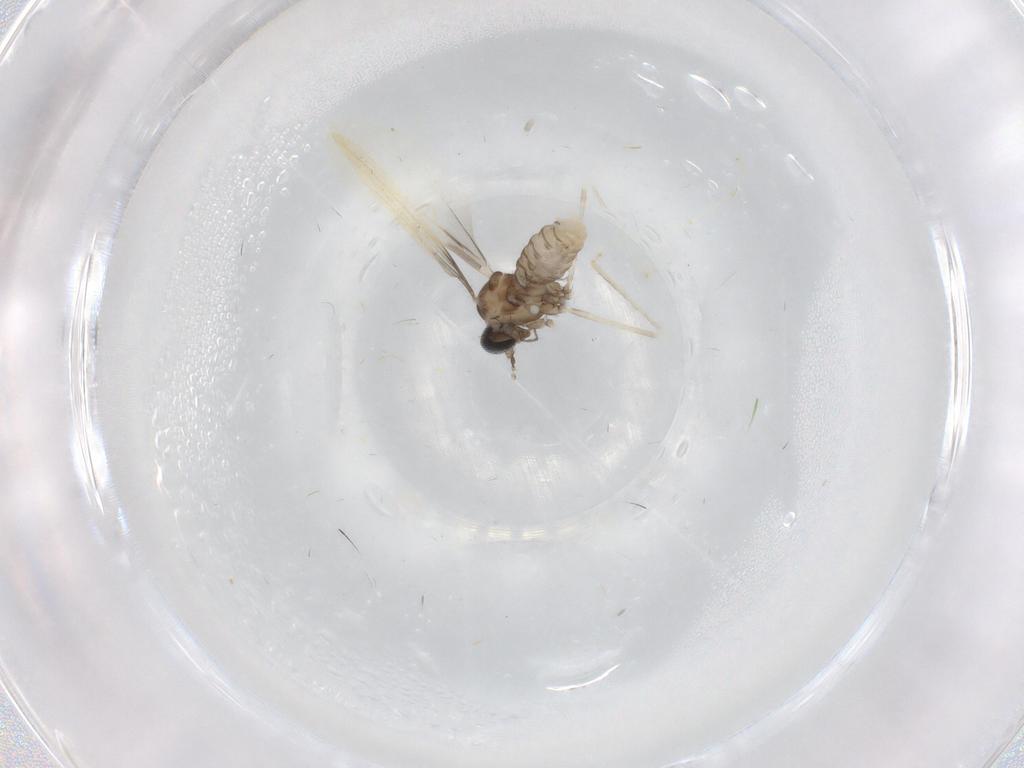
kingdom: Animalia
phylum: Arthropoda
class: Insecta
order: Diptera
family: Cecidomyiidae
